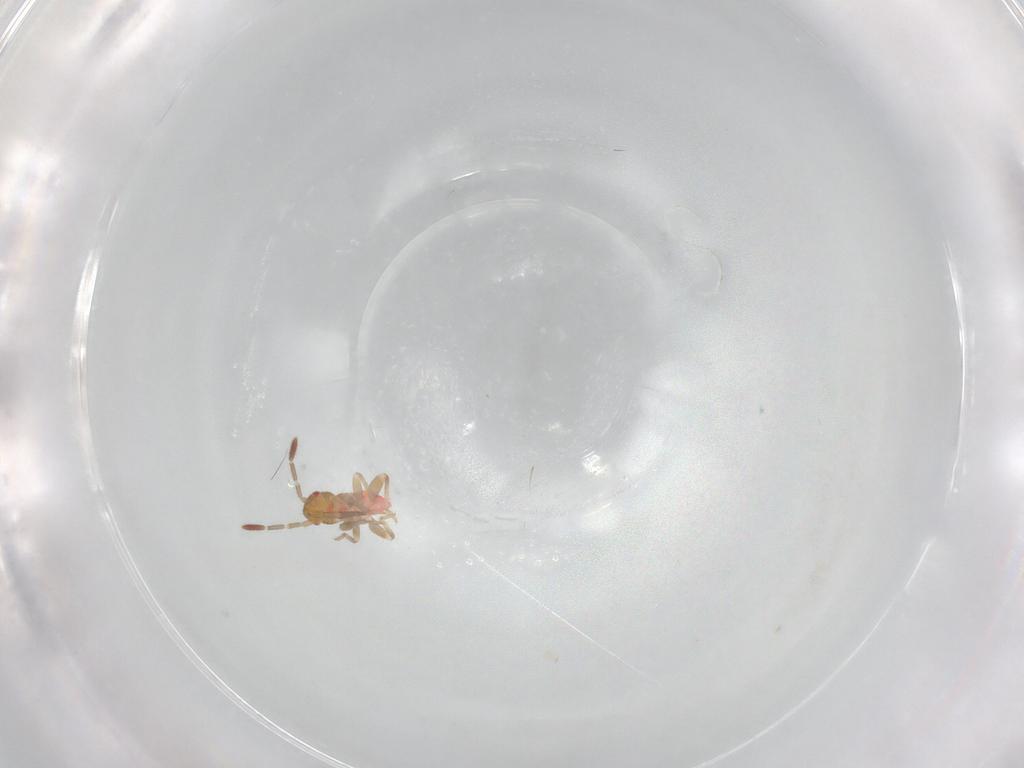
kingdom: Animalia
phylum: Arthropoda
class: Insecta
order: Hemiptera
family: Miridae
